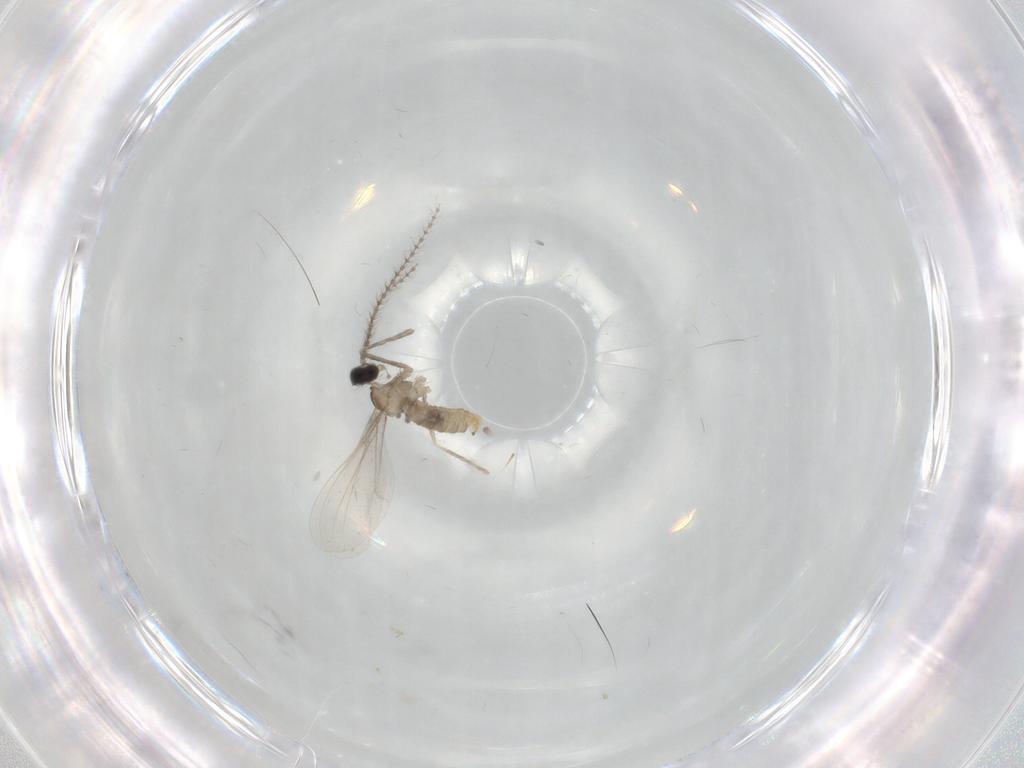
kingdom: Animalia
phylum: Arthropoda
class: Insecta
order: Diptera
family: Cecidomyiidae
